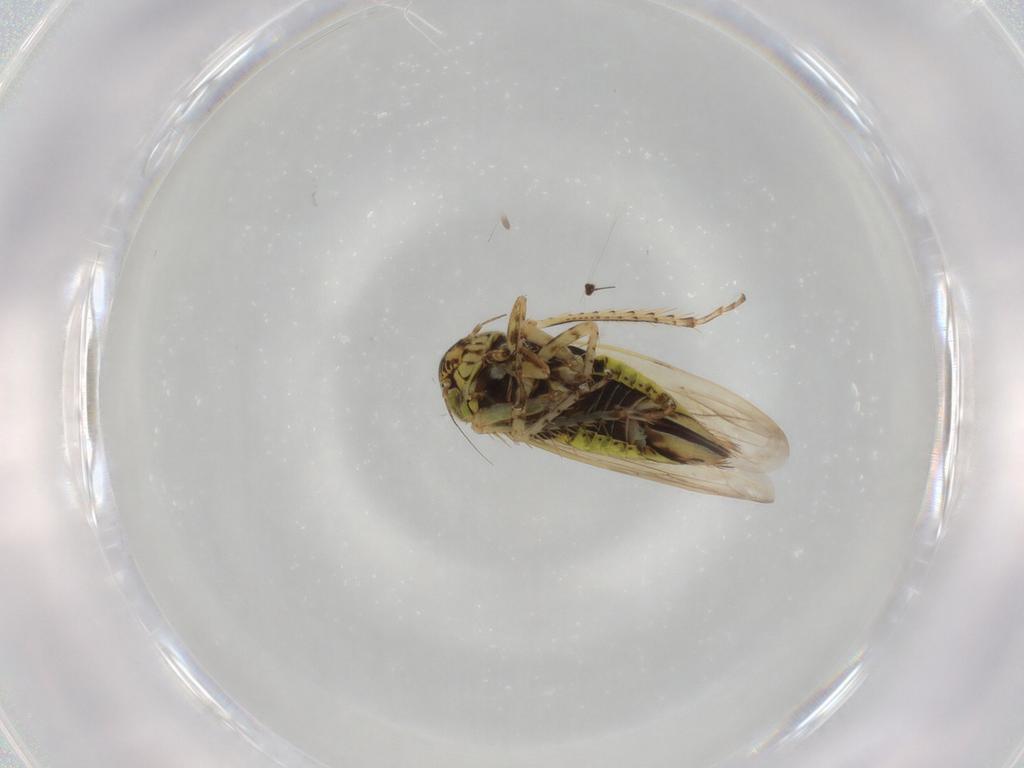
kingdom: Animalia
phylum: Arthropoda
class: Insecta
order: Hemiptera
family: Cicadellidae
